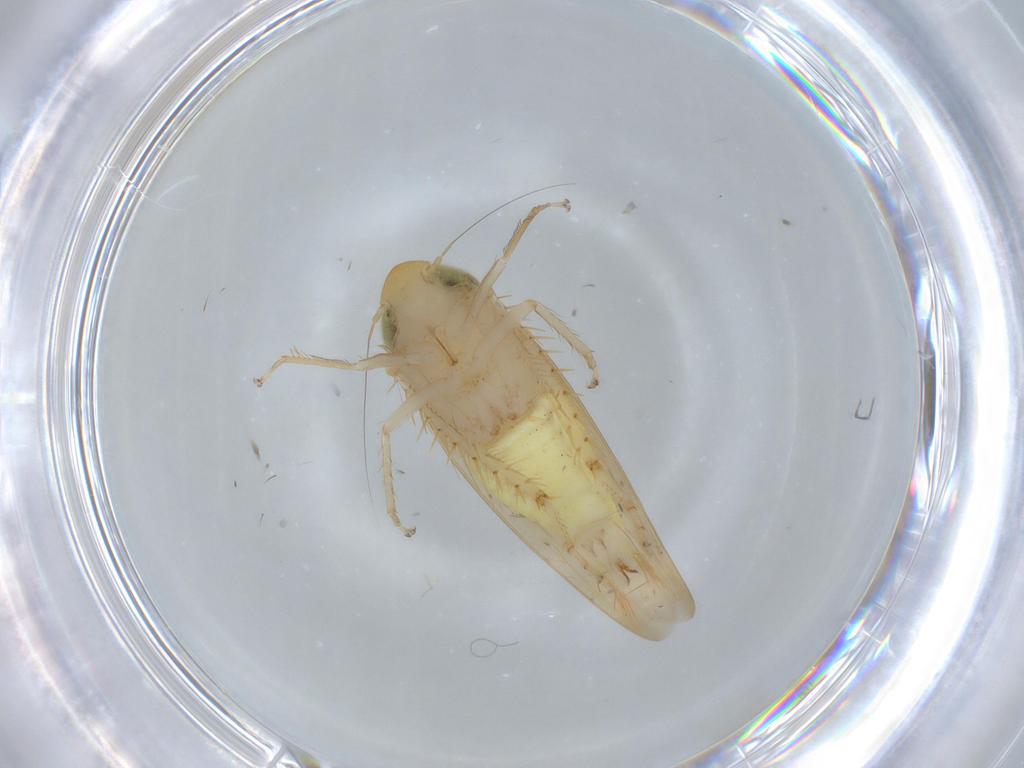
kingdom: Animalia
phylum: Arthropoda
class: Insecta
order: Hemiptera
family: Cicadellidae
